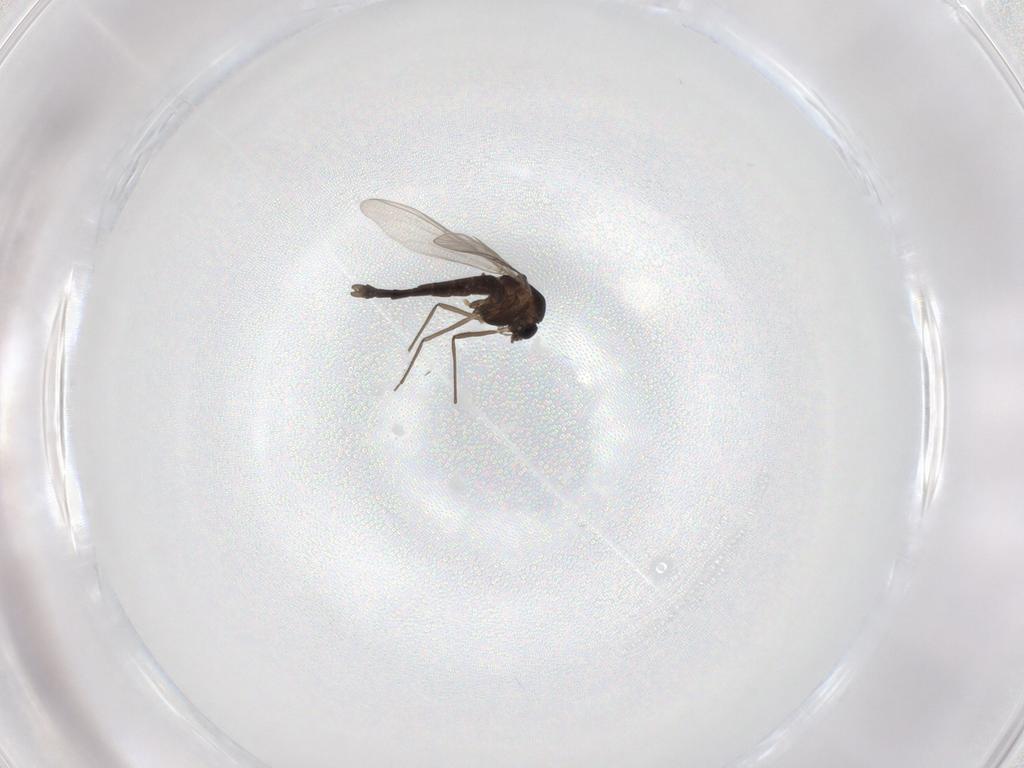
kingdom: Animalia
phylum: Arthropoda
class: Insecta
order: Diptera
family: Chironomidae
